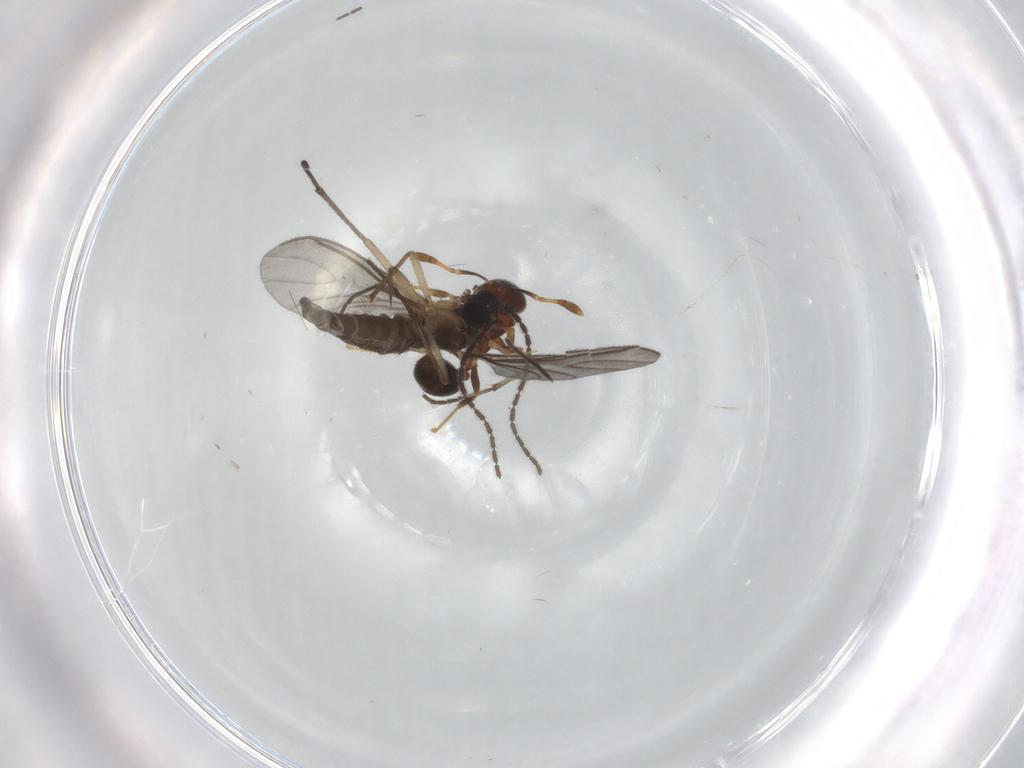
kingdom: Animalia
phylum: Arthropoda
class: Insecta
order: Diptera
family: Sciaridae
